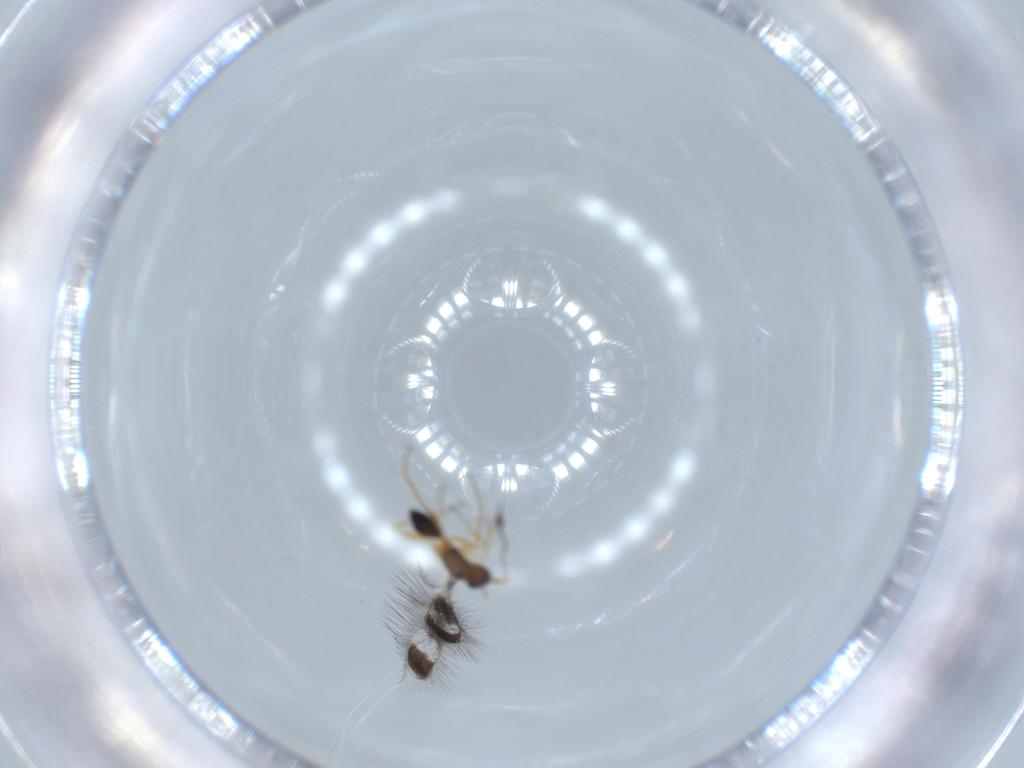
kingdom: Animalia
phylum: Arthropoda
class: Insecta
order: Hymenoptera
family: Mymaridae
